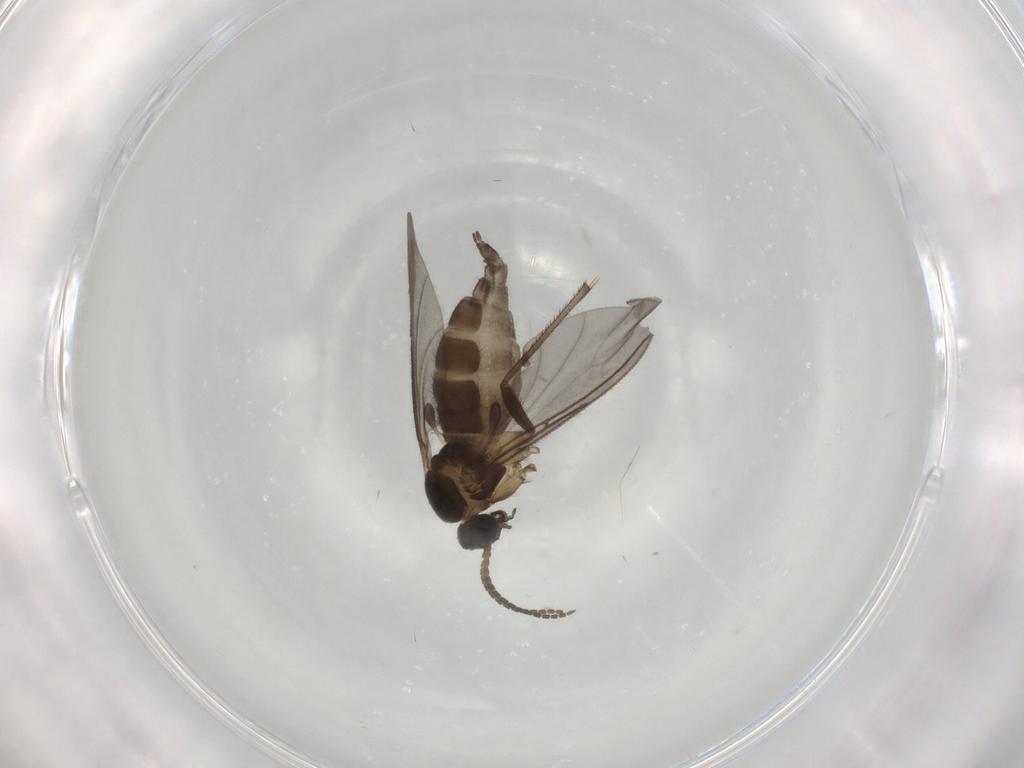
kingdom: Animalia
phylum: Arthropoda
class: Insecta
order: Diptera
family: Sciaridae
